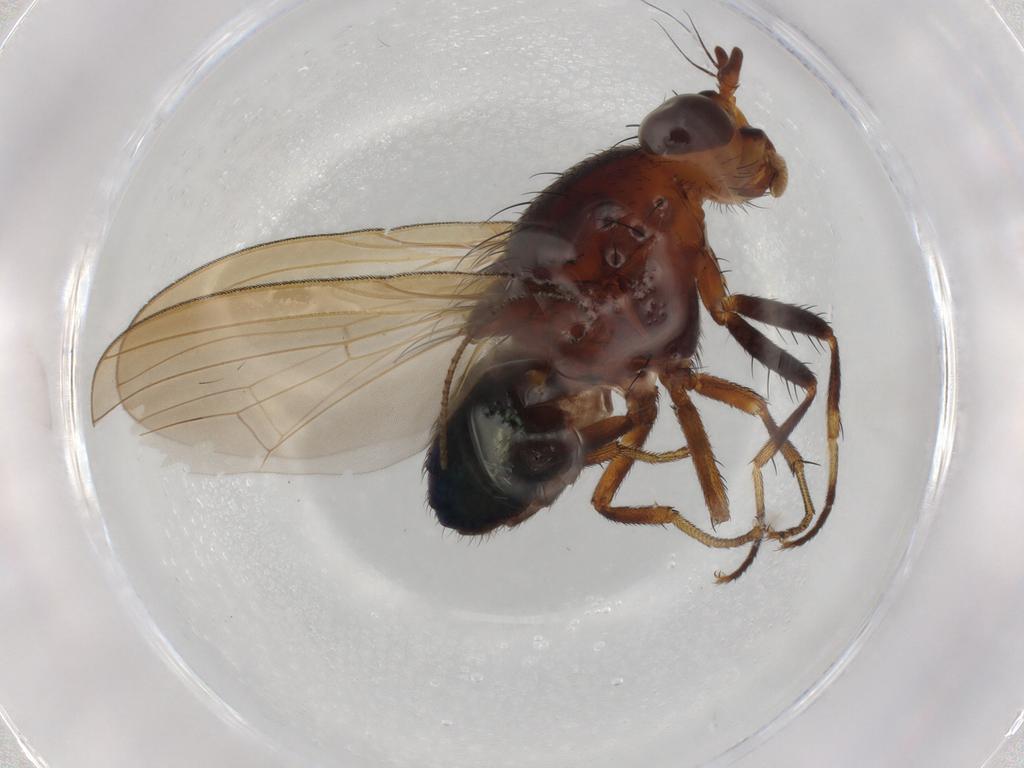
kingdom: Animalia
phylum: Arthropoda
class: Insecta
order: Diptera
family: Lauxaniidae
